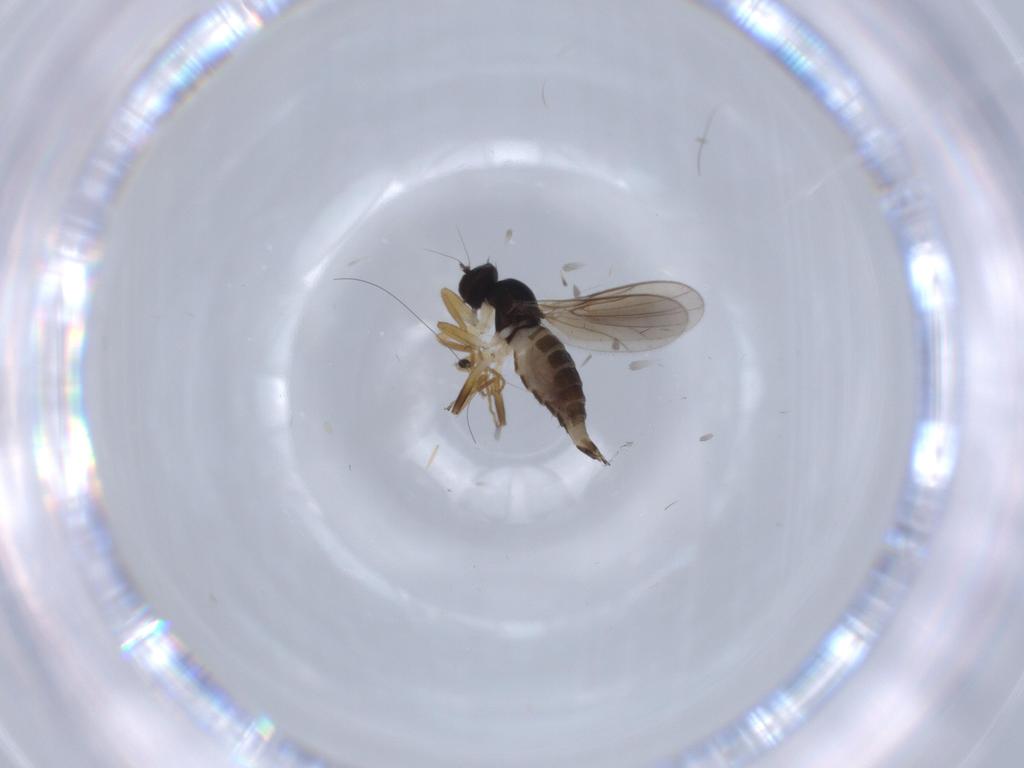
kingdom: Animalia
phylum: Arthropoda
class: Insecta
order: Diptera
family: Hybotidae
